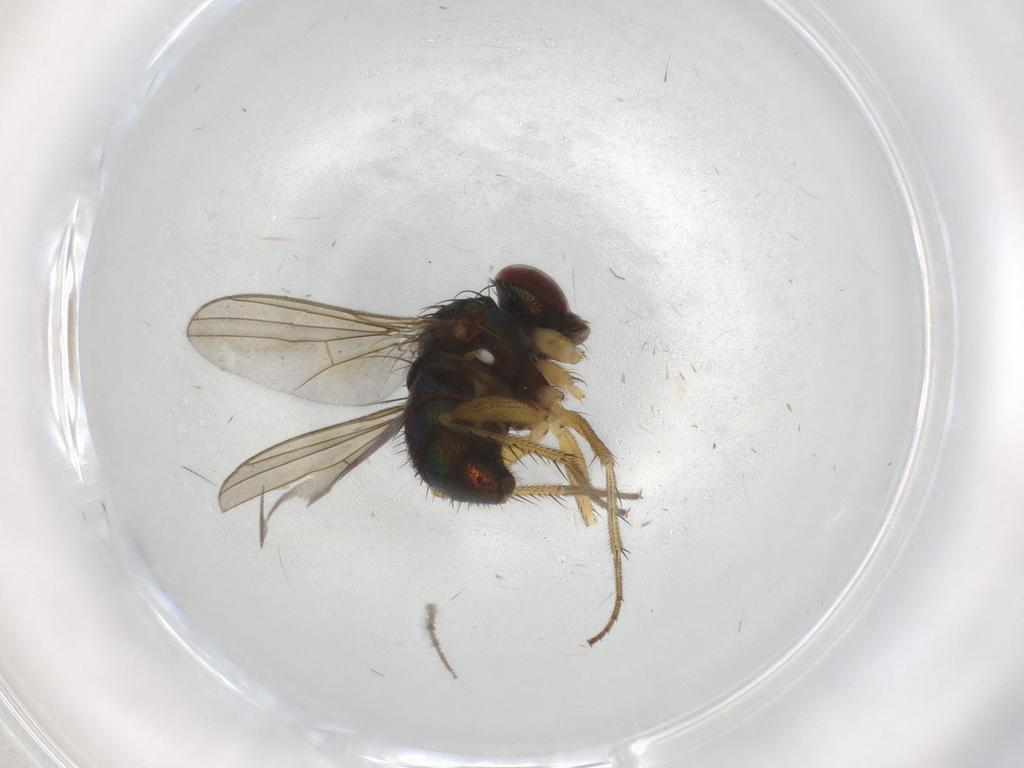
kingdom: Animalia
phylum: Arthropoda
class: Insecta
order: Diptera
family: Dolichopodidae
